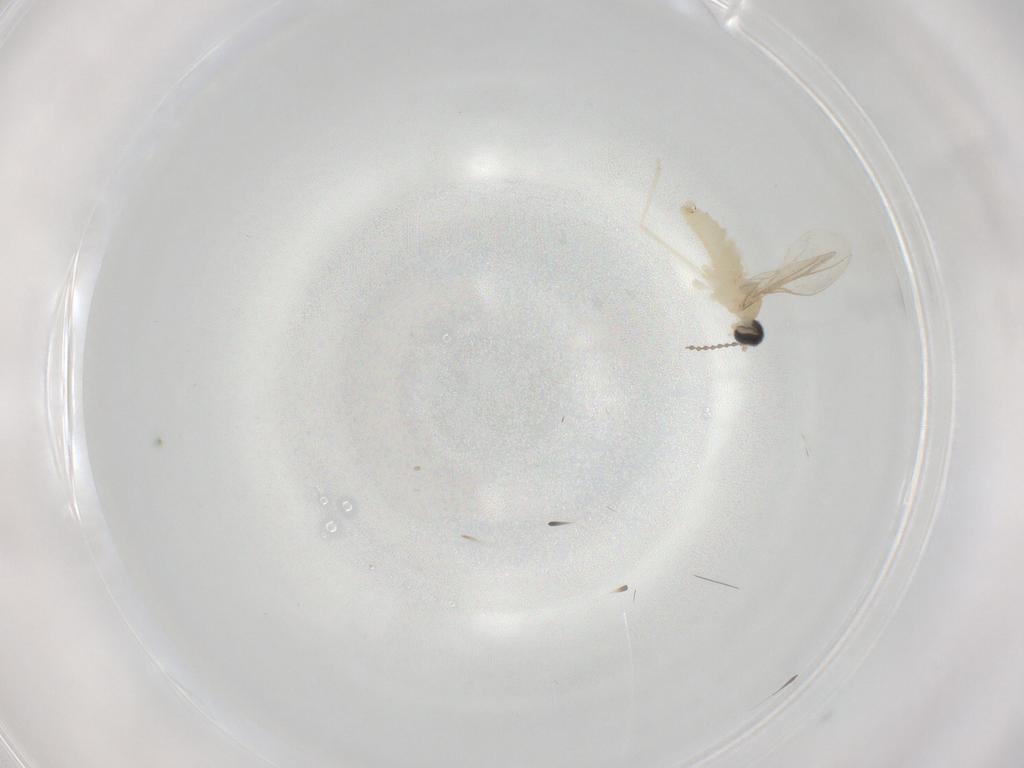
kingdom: Animalia
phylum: Arthropoda
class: Insecta
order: Diptera
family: Cecidomyiidae
